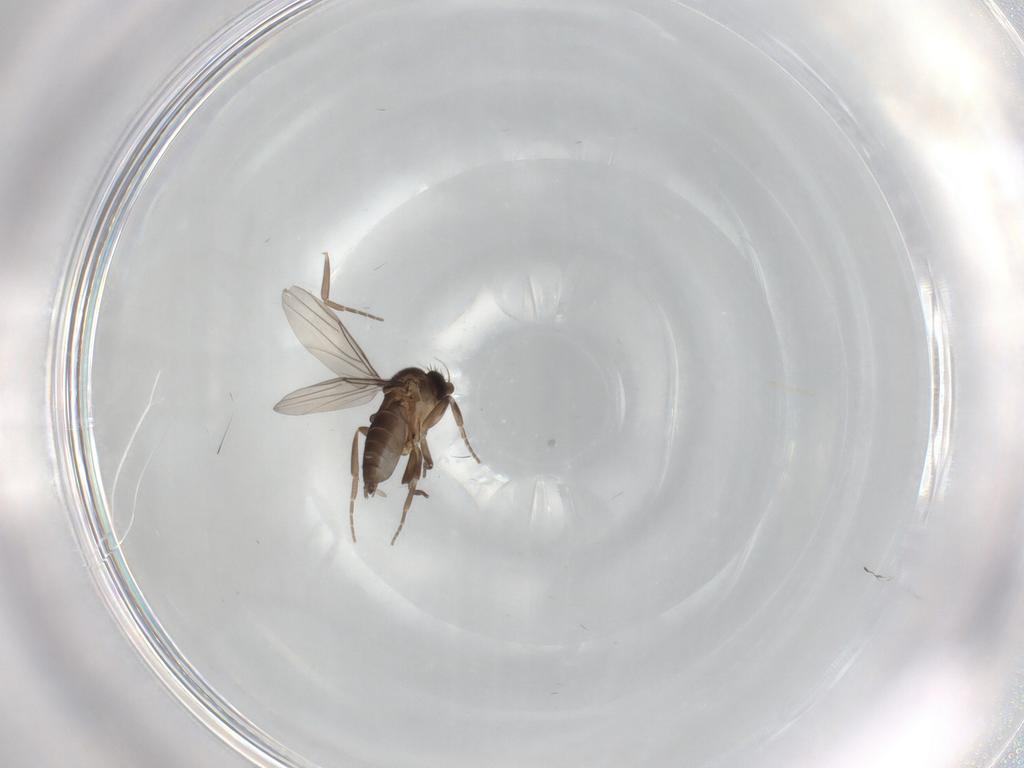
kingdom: Animalia
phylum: Arthropoda
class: Insecta
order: Diptera
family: Phoridae
